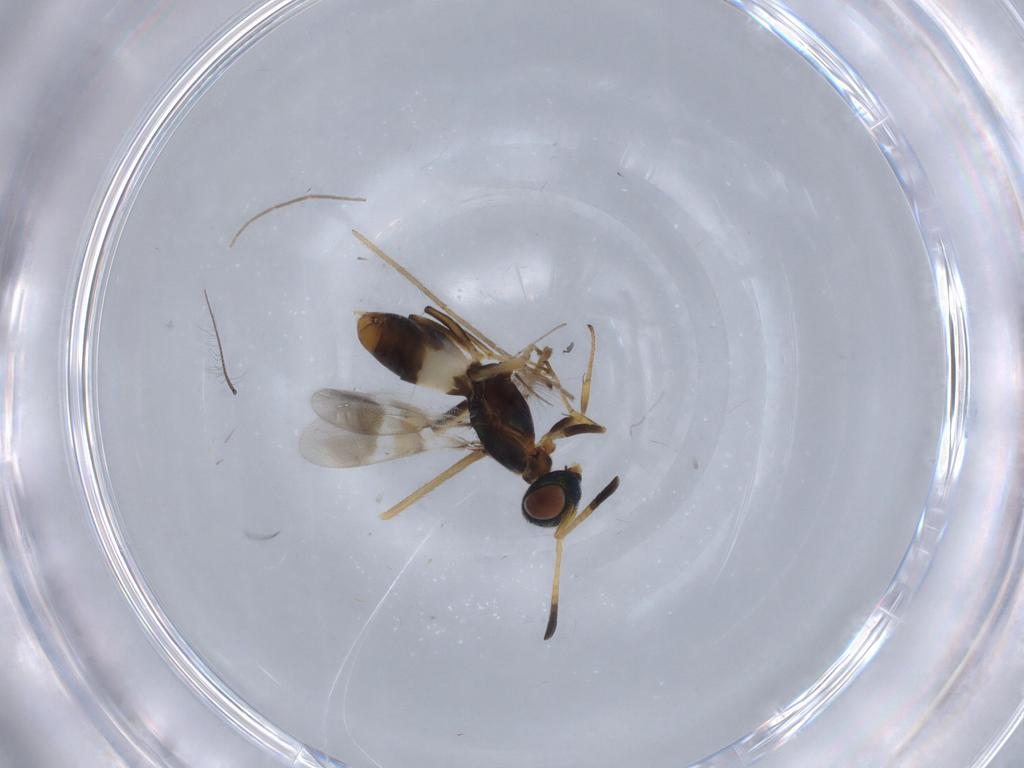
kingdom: Animalia
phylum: Arthropoda
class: Insecta
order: Hymenoptera
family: Eupelmidae
